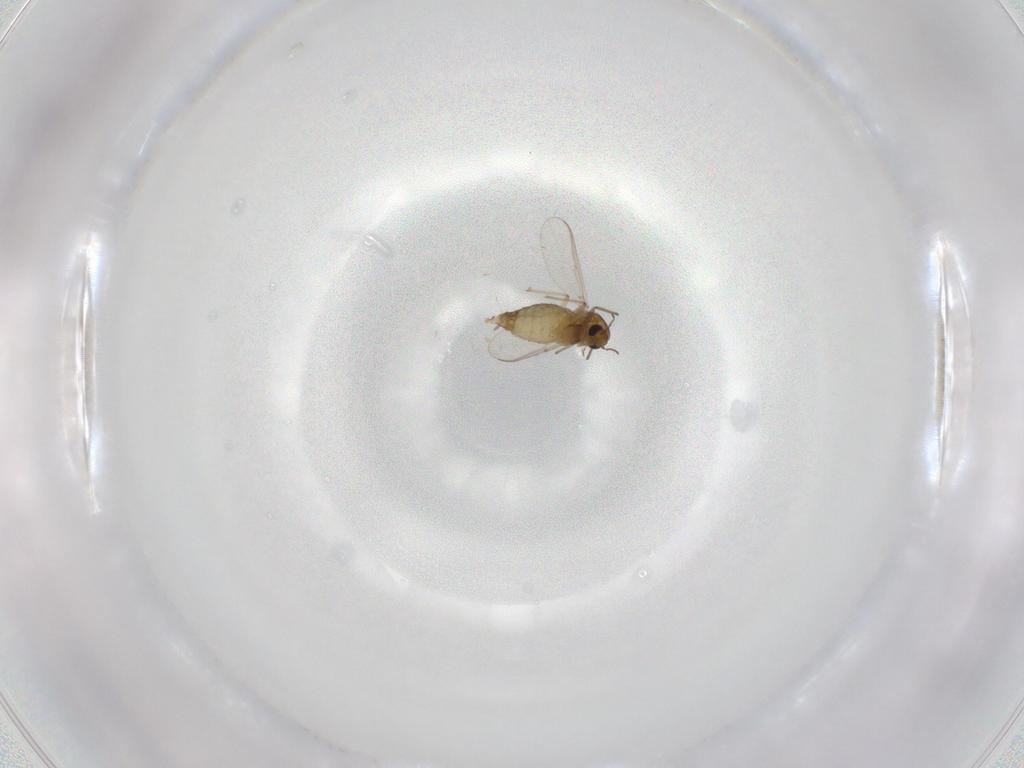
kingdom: Animalia
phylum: Arthropoda
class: Insecta
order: Diptera
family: Chironomidae
